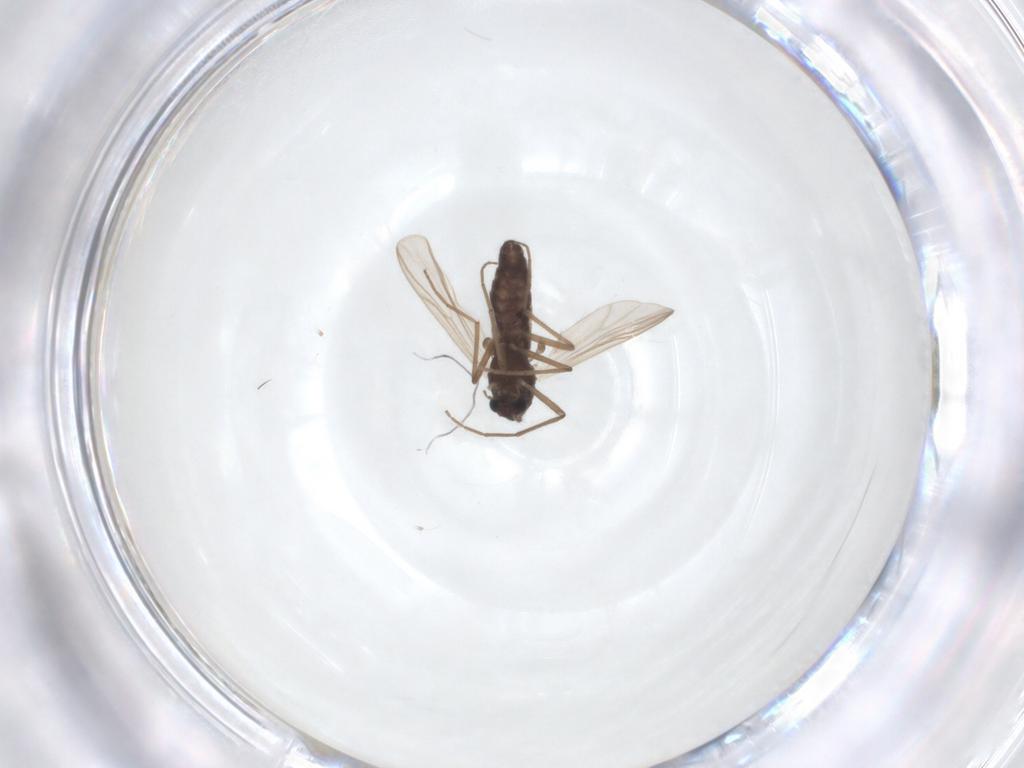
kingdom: Animalia
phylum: Arthropoda
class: Insecta
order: Diptera
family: Chironomidae
